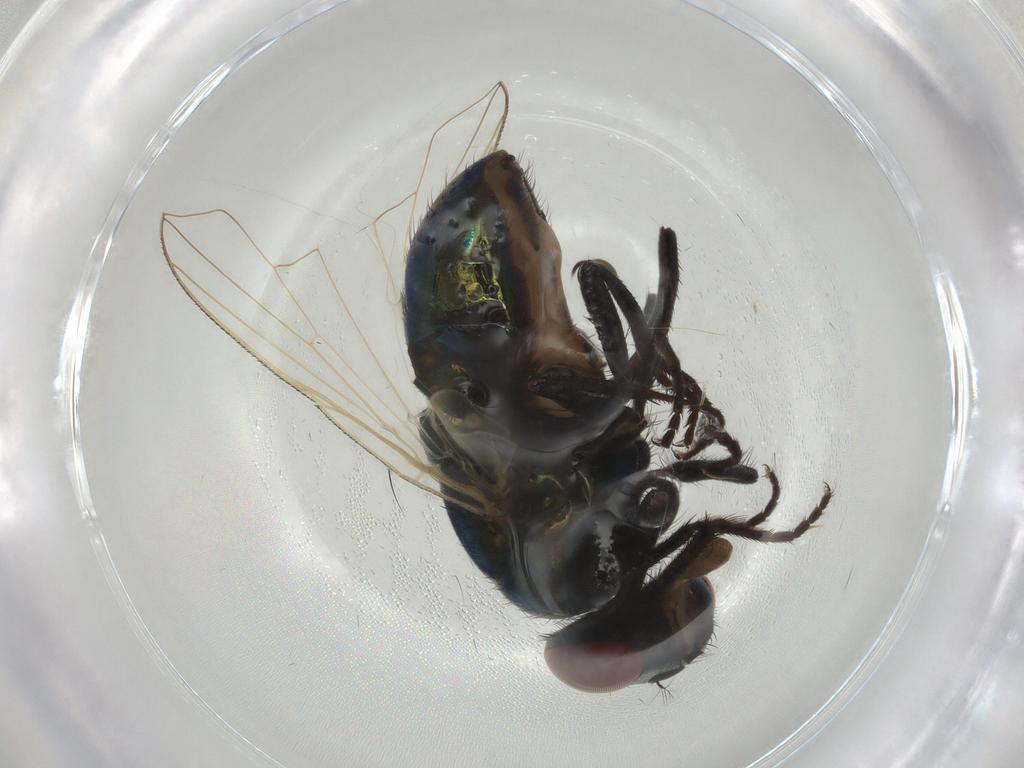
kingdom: Animalia
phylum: Arthropoda
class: Insecta
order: Diptera
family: Muscidae
